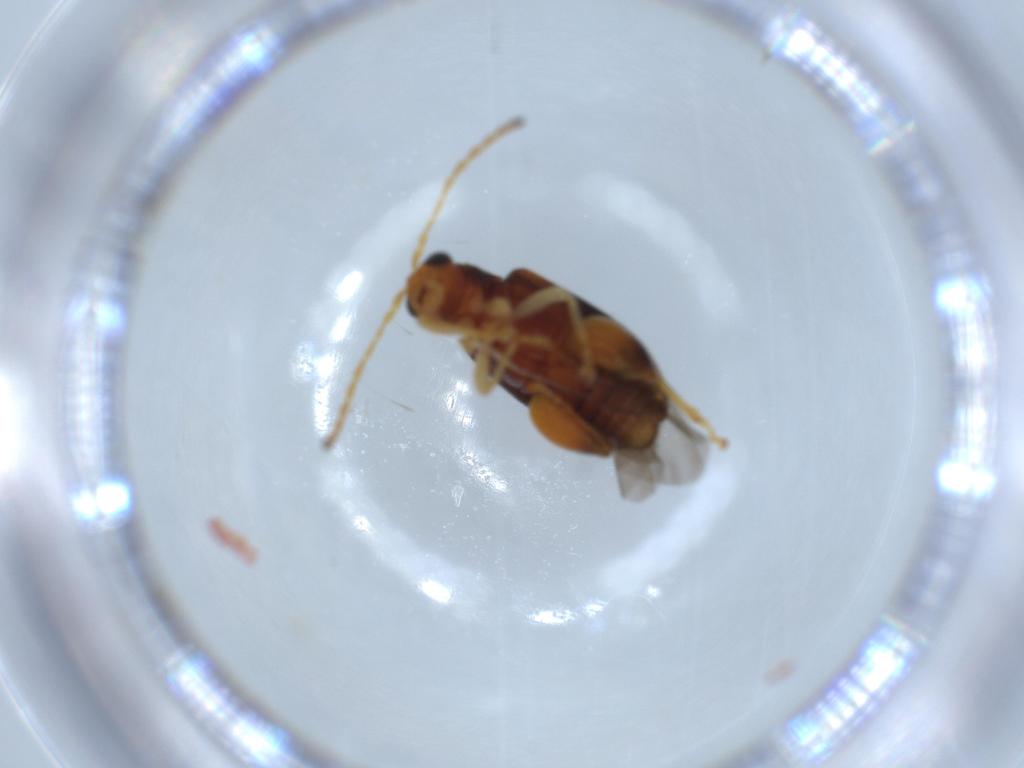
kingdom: Animalia
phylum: Arthropoda
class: Insecta
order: Coleoptera
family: Chrysomelidae
